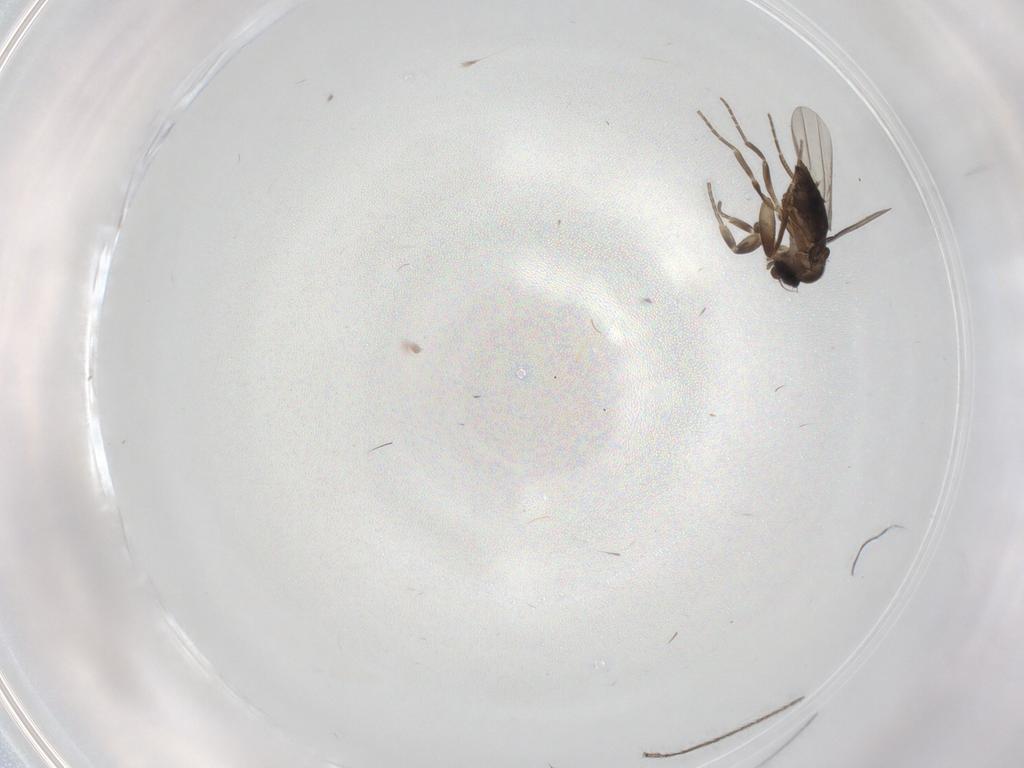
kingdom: Animalia
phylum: Arthropoda
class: Insecta
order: Diptera
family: Phoridae
